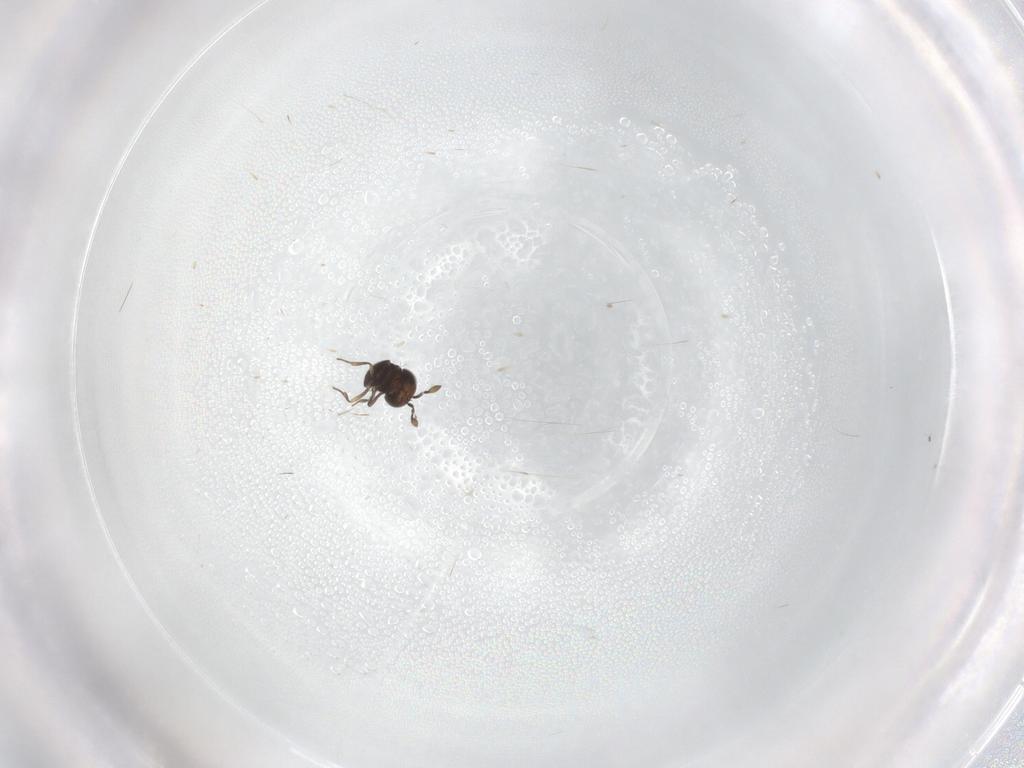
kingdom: Animalia
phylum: Arthropoda
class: Insecta
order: Hymenoptera
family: Scelionidae
